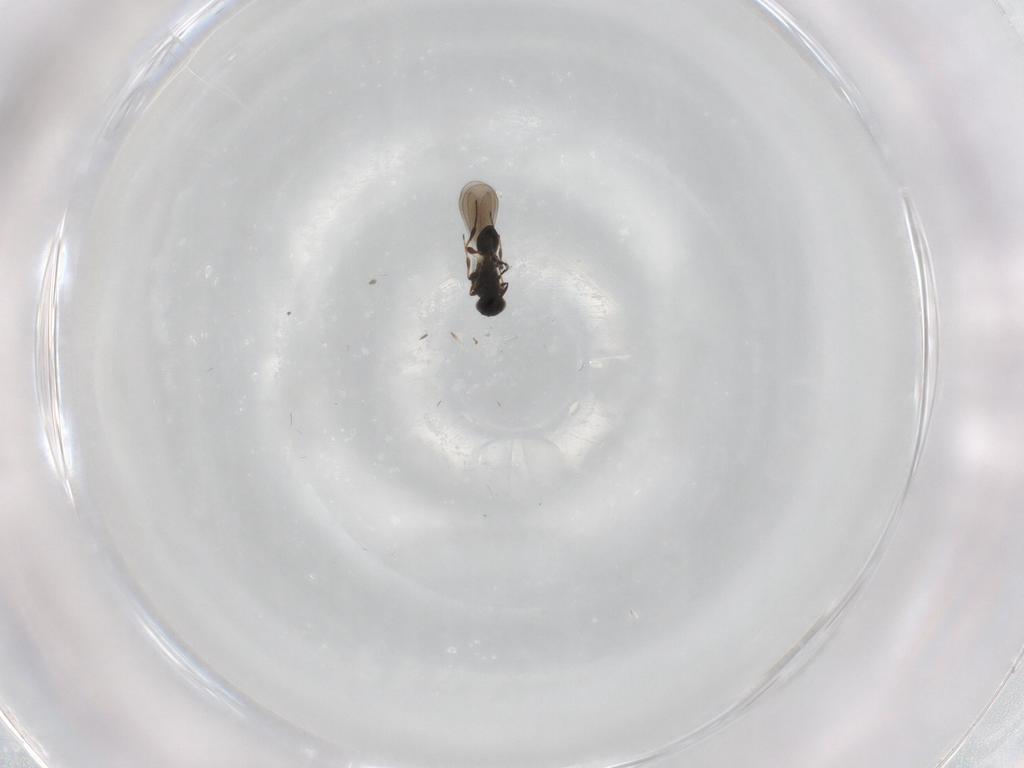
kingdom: Animalia
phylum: Arthropoda
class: Insecta
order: Hymenoptera
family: Platygastridae
